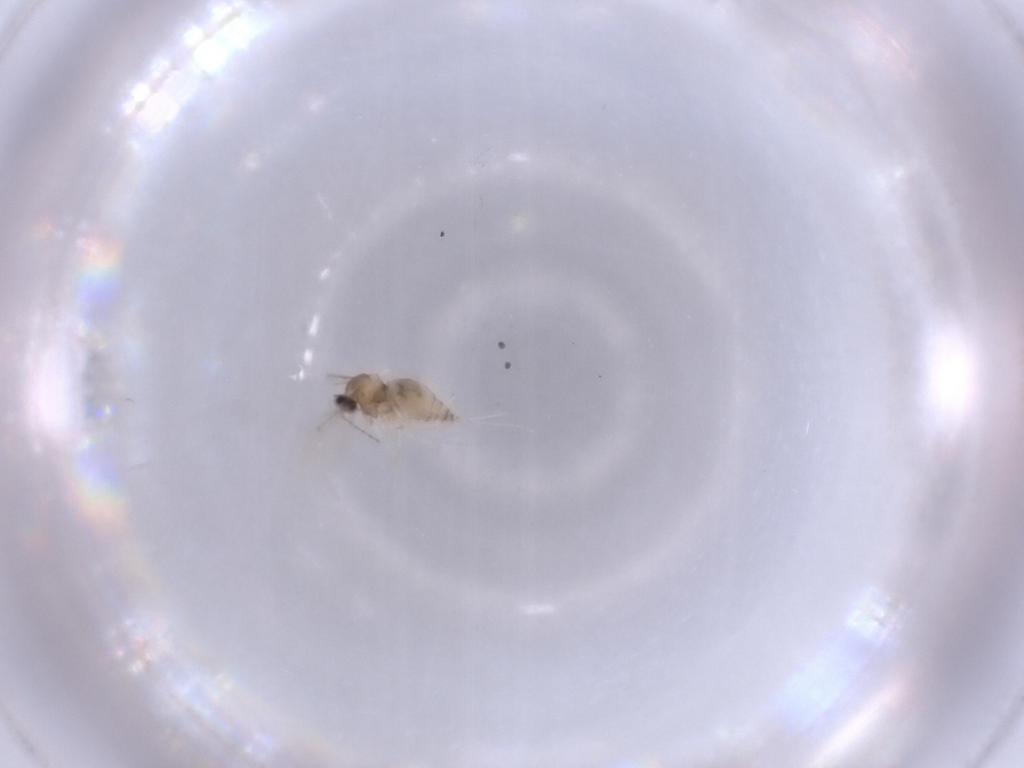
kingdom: Animalia
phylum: Arthropoda
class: Insecta
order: Diptera
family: Cecidomyiidae
